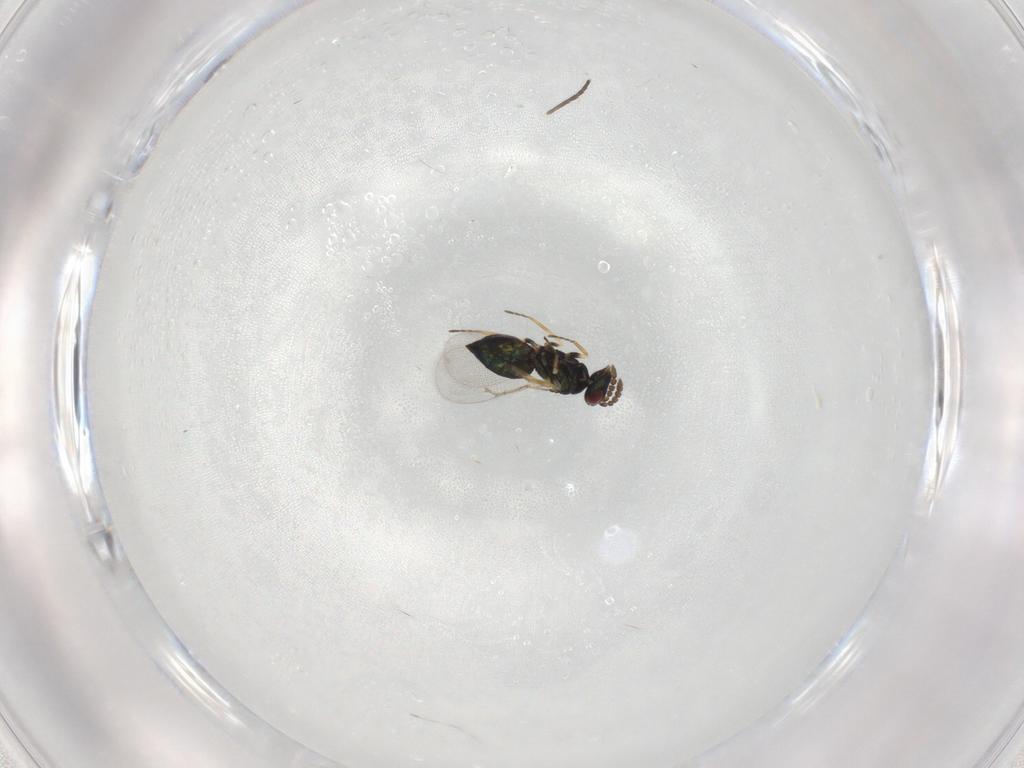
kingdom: Animalia
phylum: Arthropoda
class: Insecta
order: Hymenoptera
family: Eulophidae
